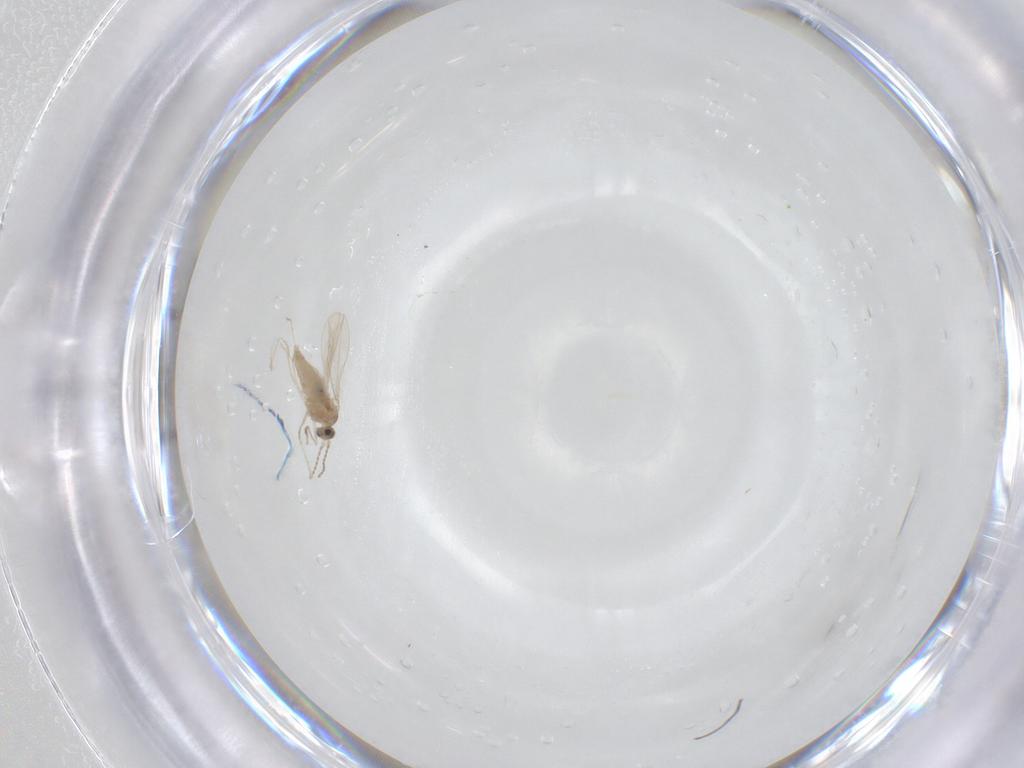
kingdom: Animalia
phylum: Arthropoda
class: Insecta
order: Diptera
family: Cecidomyiidae
